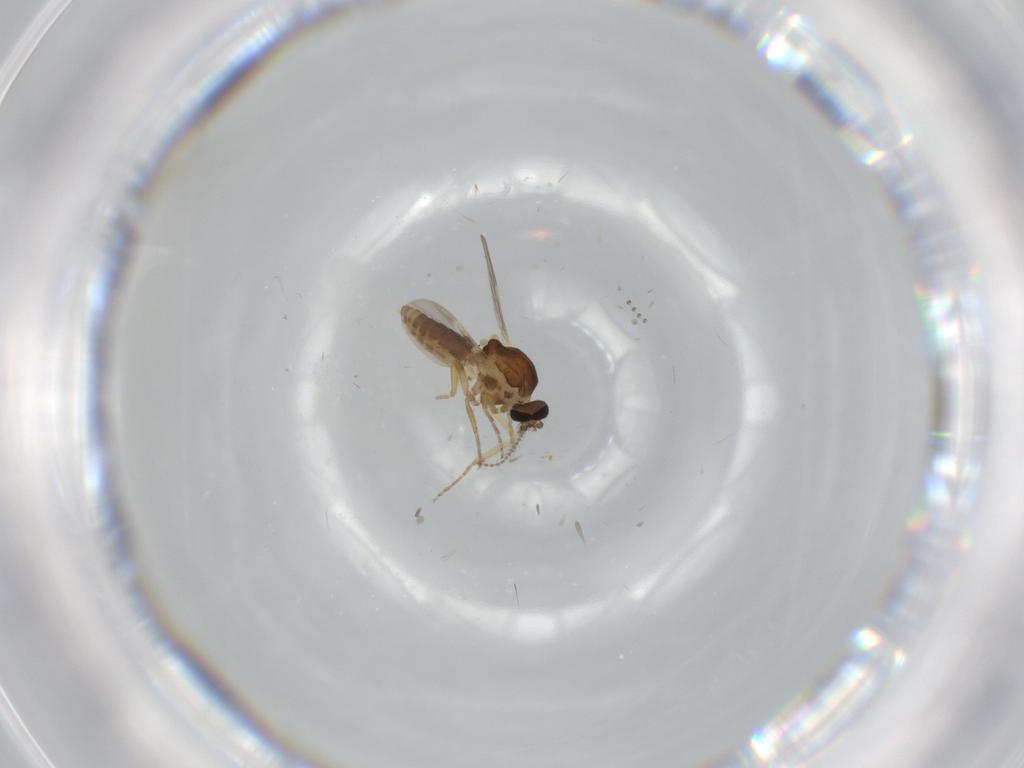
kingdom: Animalia
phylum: Arthropoda
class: Insecta
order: Diptera
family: Ceratopogonidae
